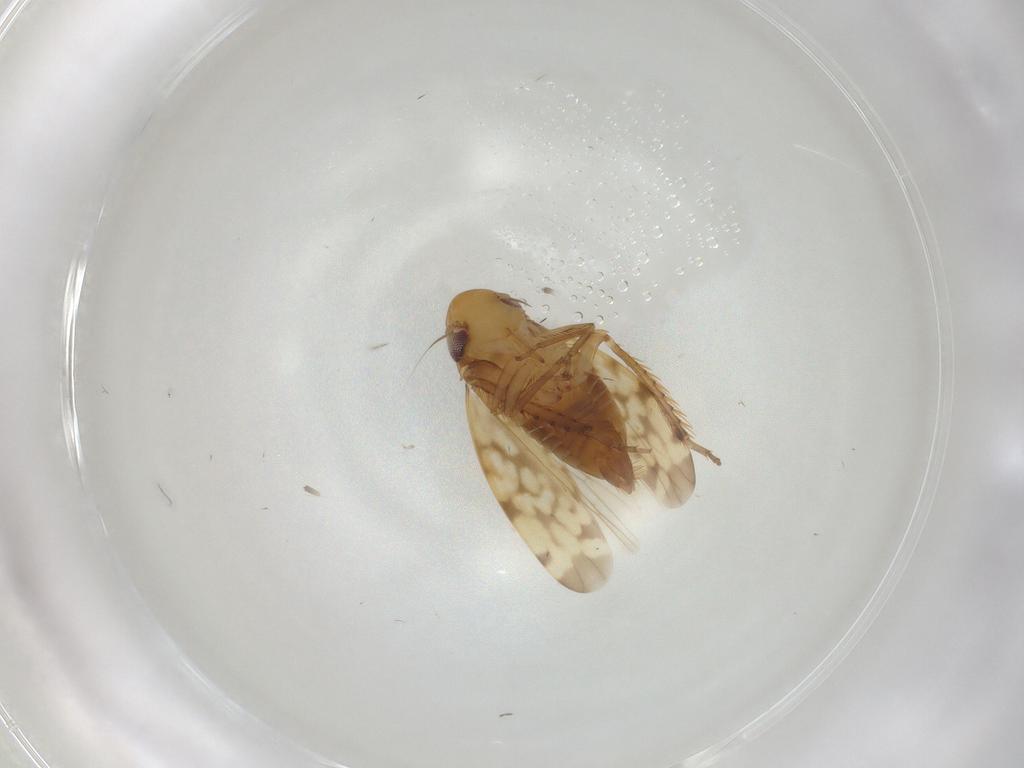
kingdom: Animalia
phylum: Arthropoda
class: Insecta
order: Hemiptera
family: Cicadellidae
